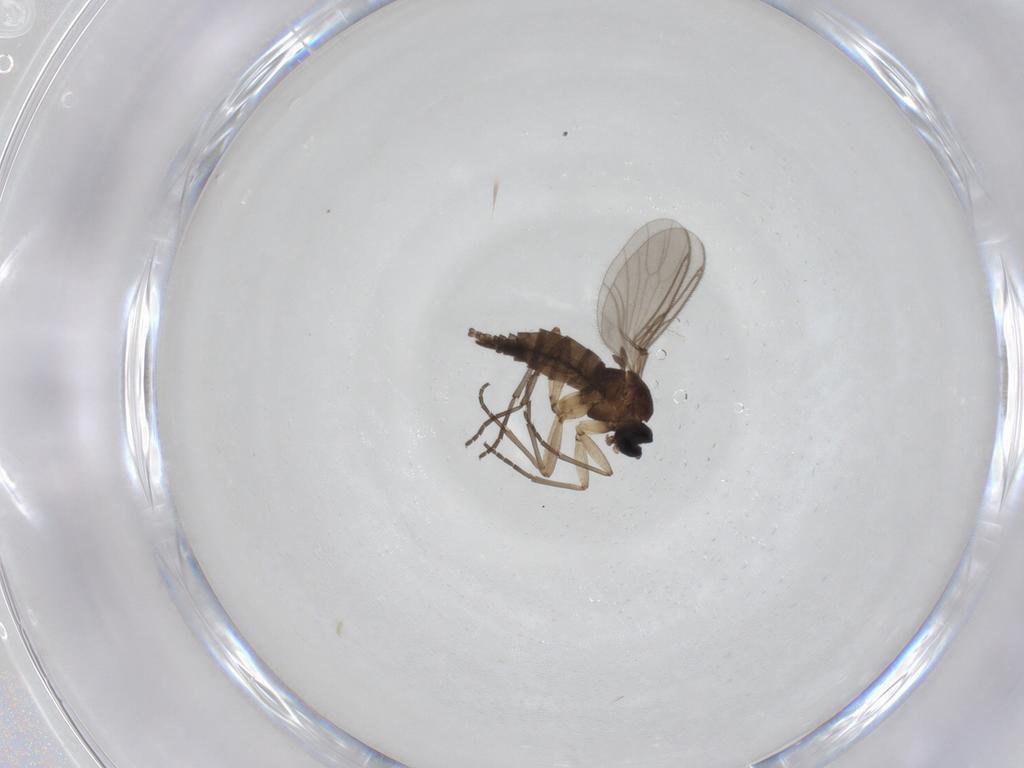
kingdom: Animalia
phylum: Arthropoda
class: Insecta
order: Diptera
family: Sciaridae
